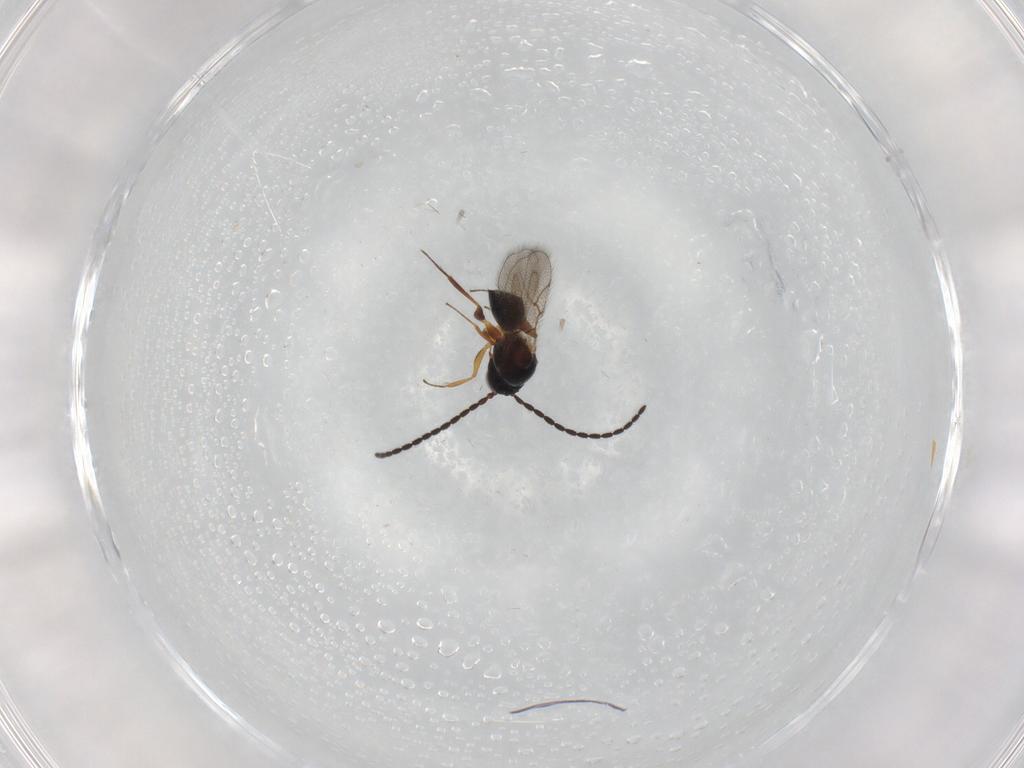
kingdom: Animalia
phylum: Arthropoda
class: Insecta
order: Hymenoptera
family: Figitidae
